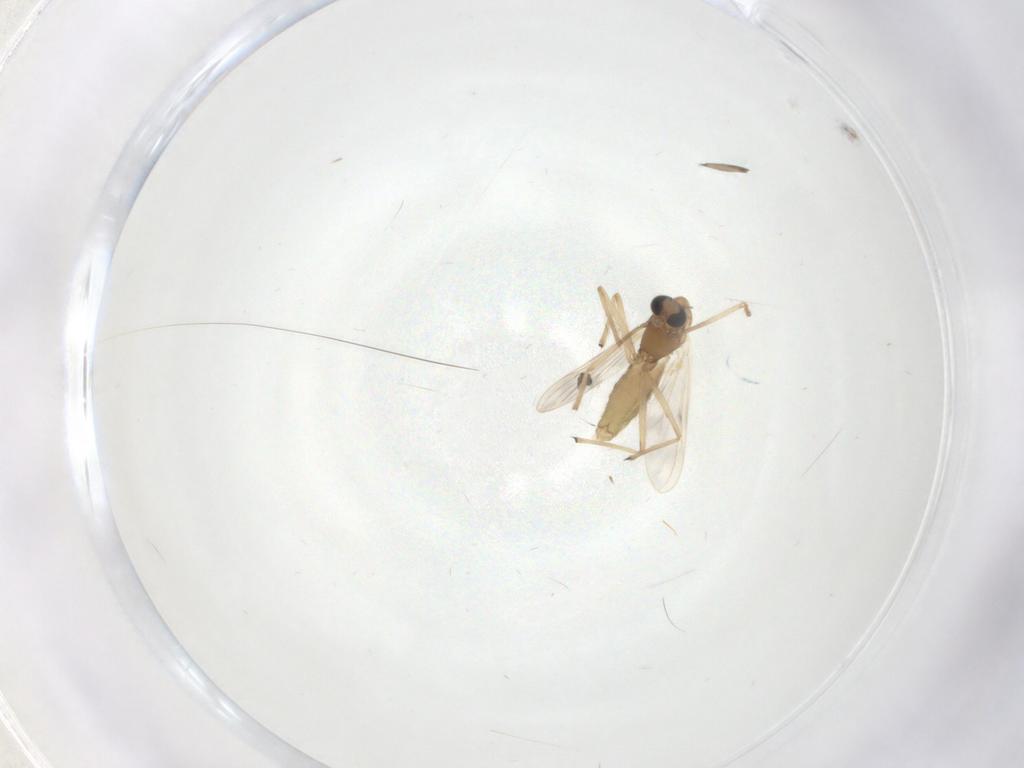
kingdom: Animalia
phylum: Arthropoda
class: Insecta
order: Diptera
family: Chironomidae
